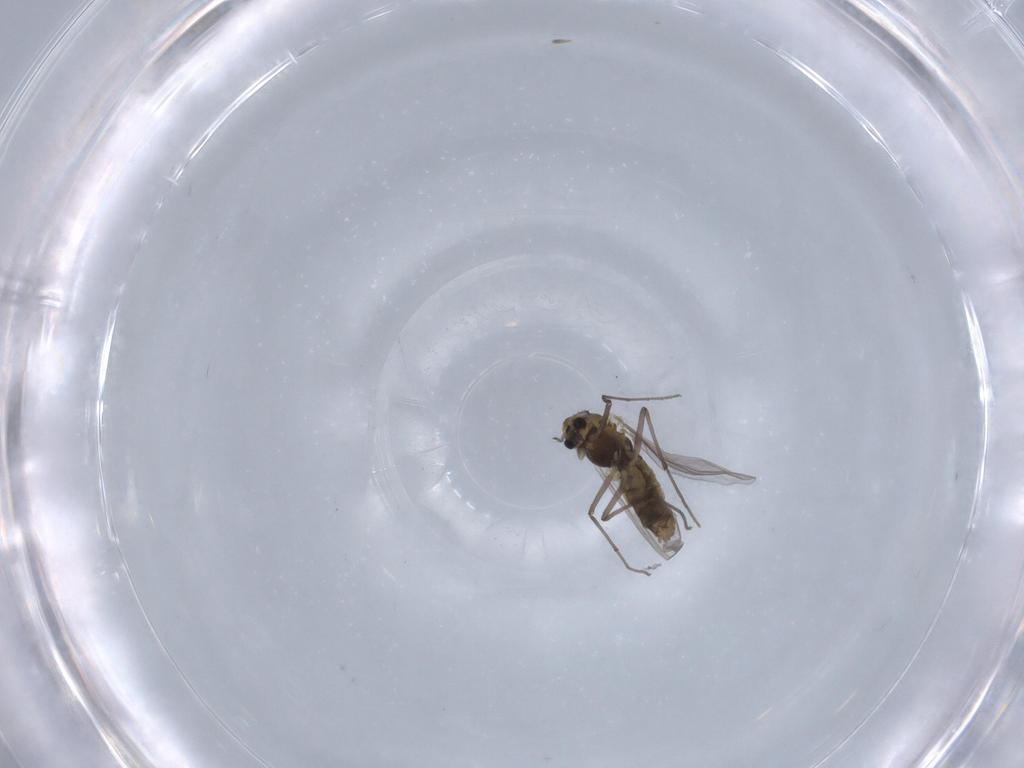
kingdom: Animalia
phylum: Arthropoda
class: Insecta
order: Diptera
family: Chironomidae
